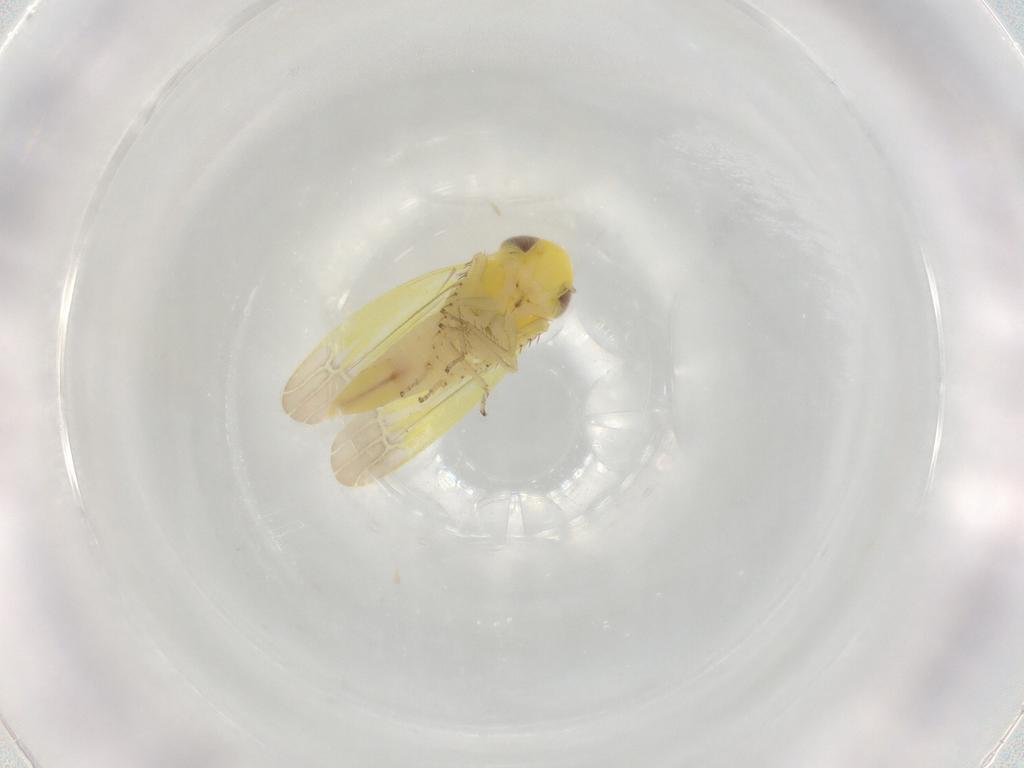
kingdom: Animalia
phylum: Arthropoda
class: Insecta
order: Hemiptera
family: Cicadellidae
